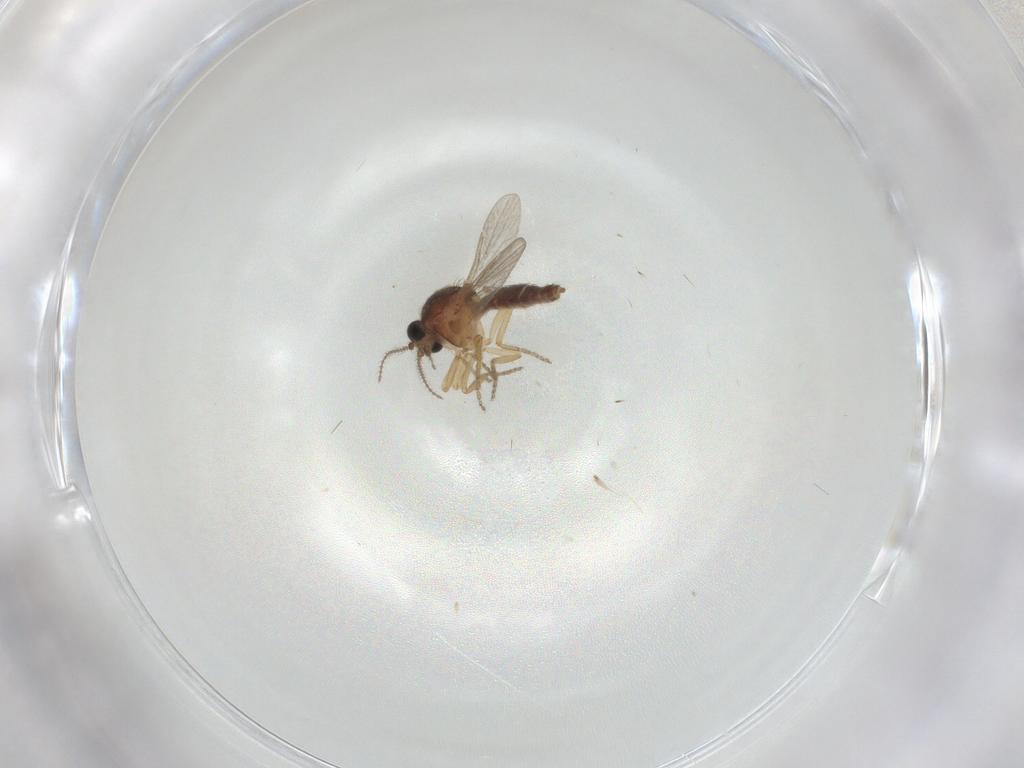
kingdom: Animalia
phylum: Arthropoda
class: Insecta
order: Diptera
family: Ceratopogonidae
